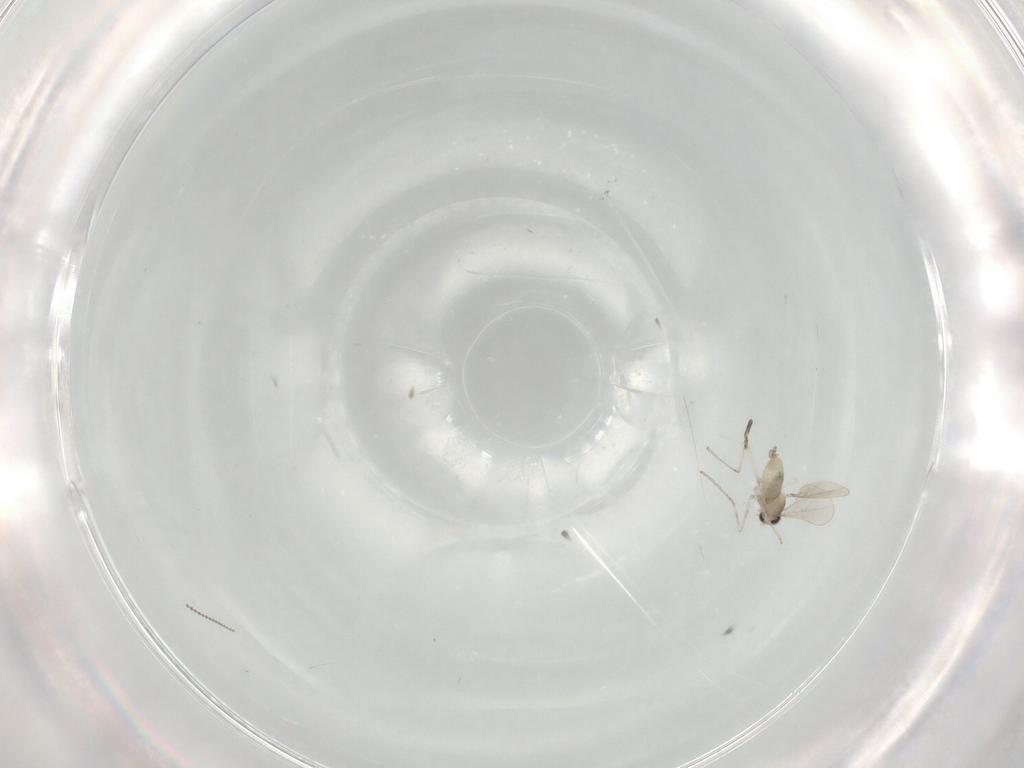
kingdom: Animalia
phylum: Arthropoda
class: Insecta
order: Diptera
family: Cecidomyiidae
